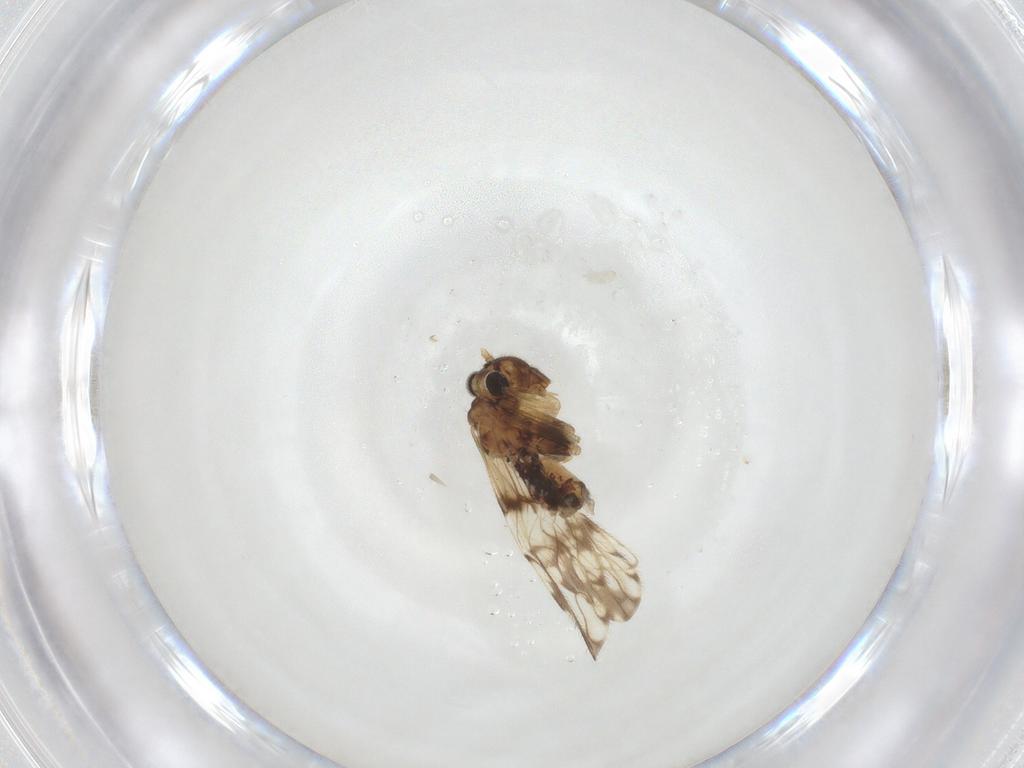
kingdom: Animalia
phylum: Arthropoda
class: Insecta
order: Psocodea
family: Epipsocidae
